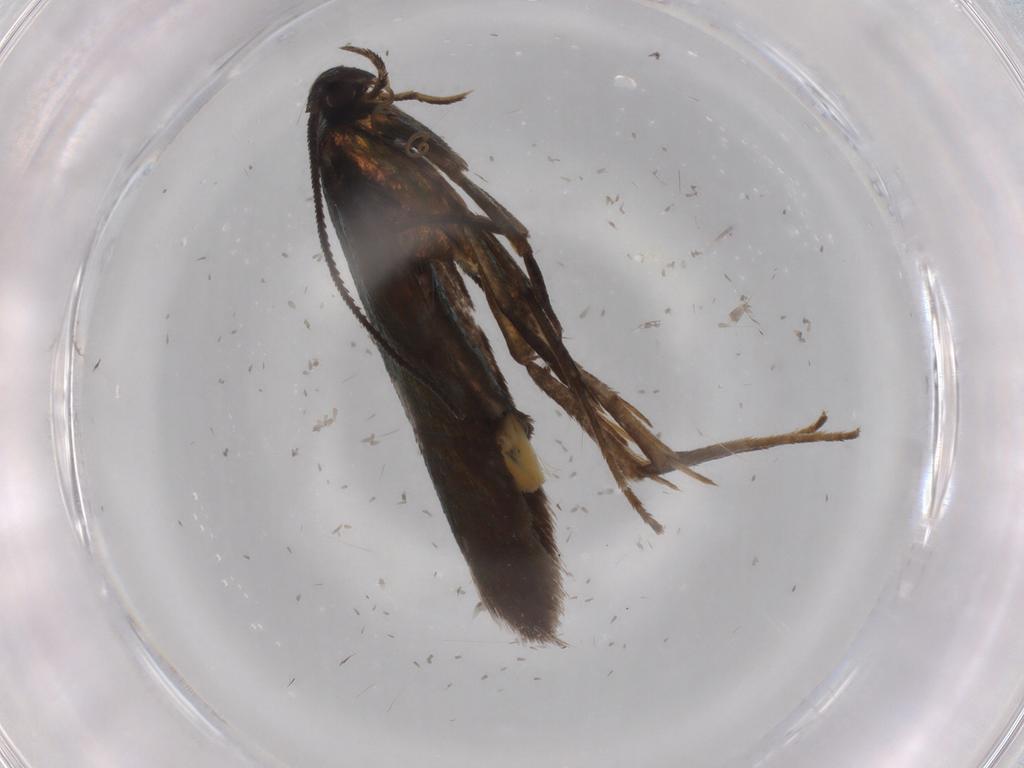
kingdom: Animalia
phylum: Arthropoda
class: Insecta
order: Lepidoptera
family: Argyresthiidae
